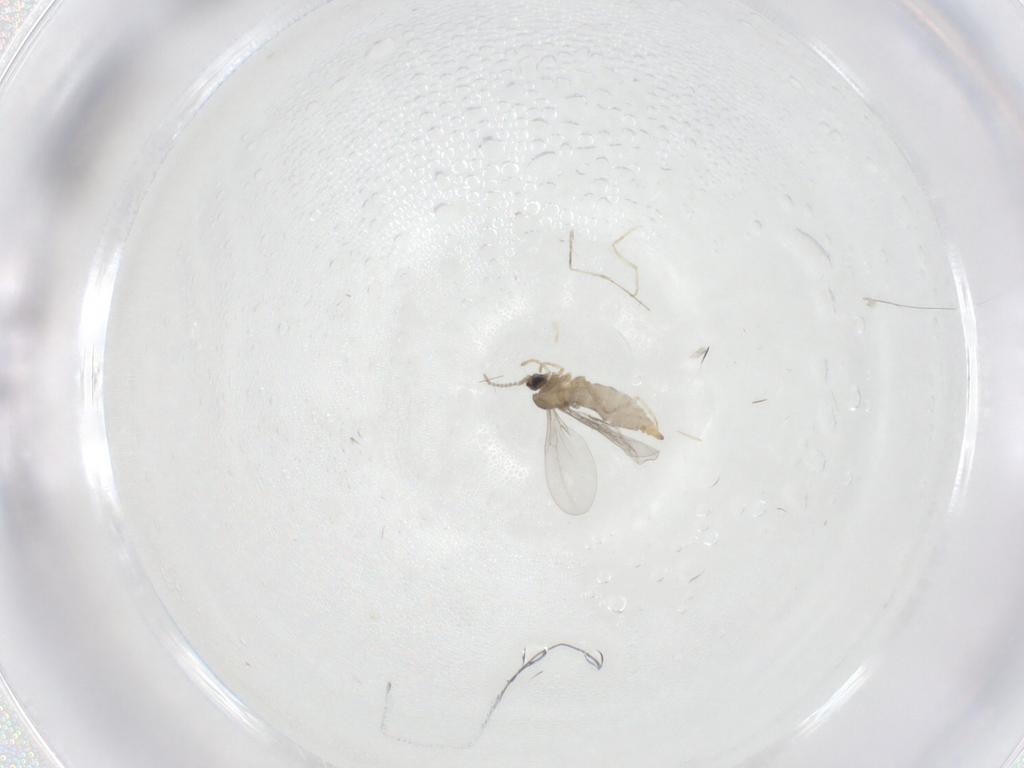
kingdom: Animalia
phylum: Arthropoda
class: Insecta
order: Diptera
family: Cecidomyiidae
